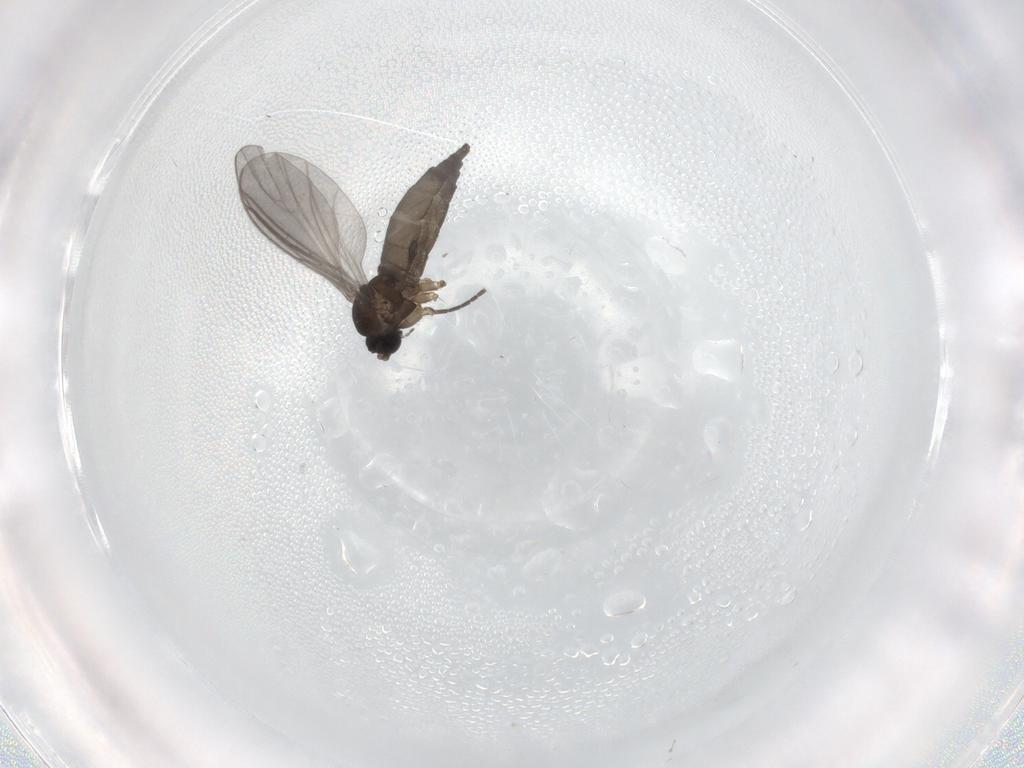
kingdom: Animalia
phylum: Arthropoda
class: Insecta
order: Diptera
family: Sciaridae
